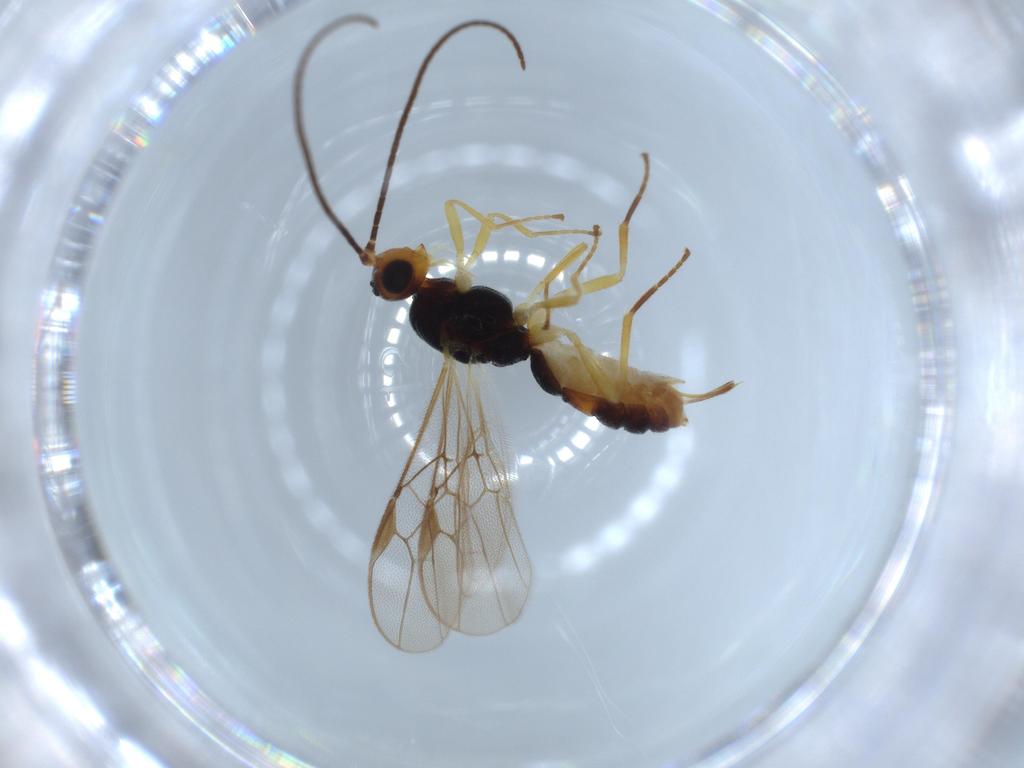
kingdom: Animalia
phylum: Arthropoda
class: Insecta
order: Hymenoptera
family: Braconidae
